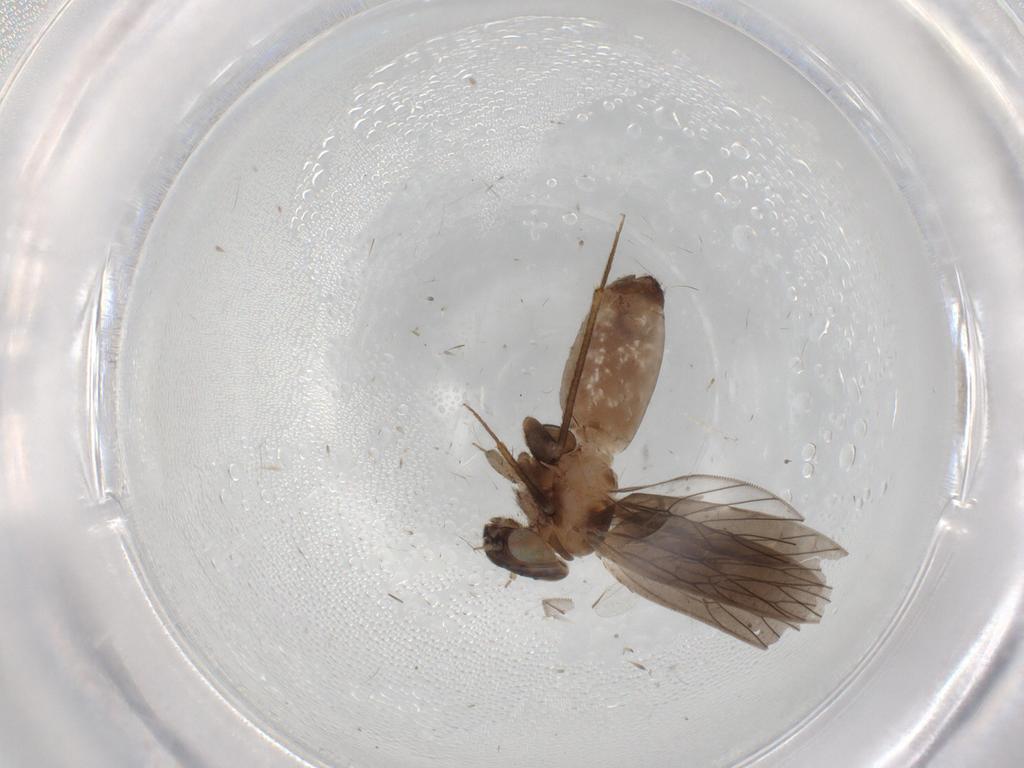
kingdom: Animalia
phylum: Arthropoda
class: Insecta
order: Psocodea
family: Lepidopsocidae
